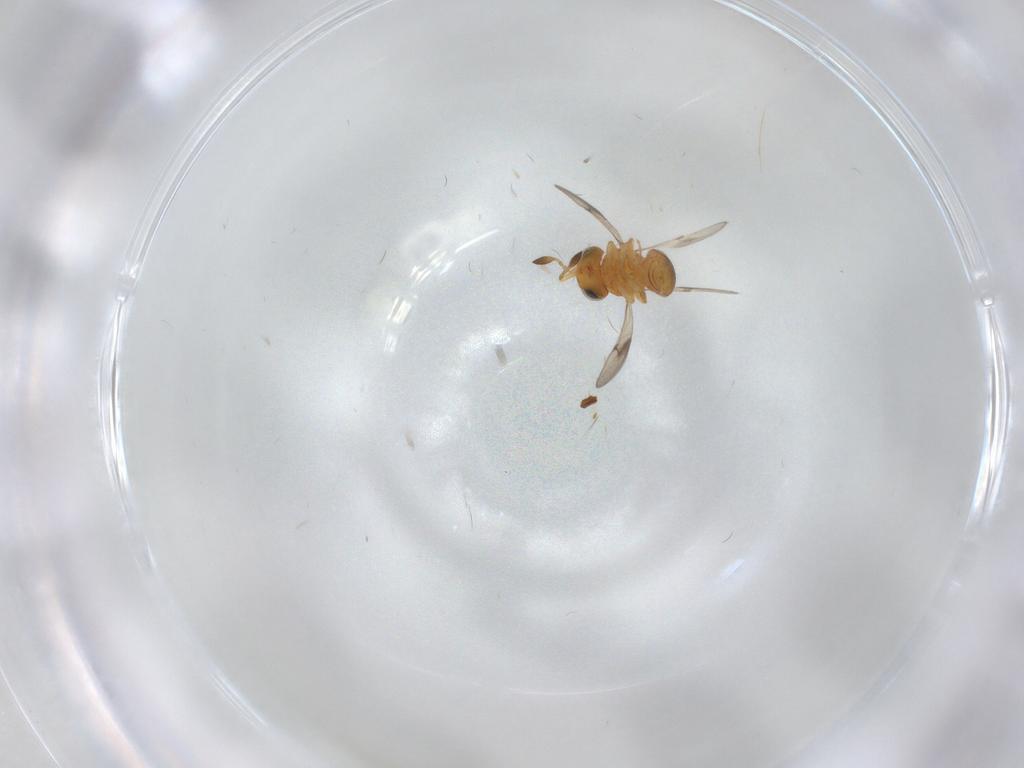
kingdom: Animalia
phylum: Arthropoda
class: Insecta
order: Hymenoptera
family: Scelionidae
